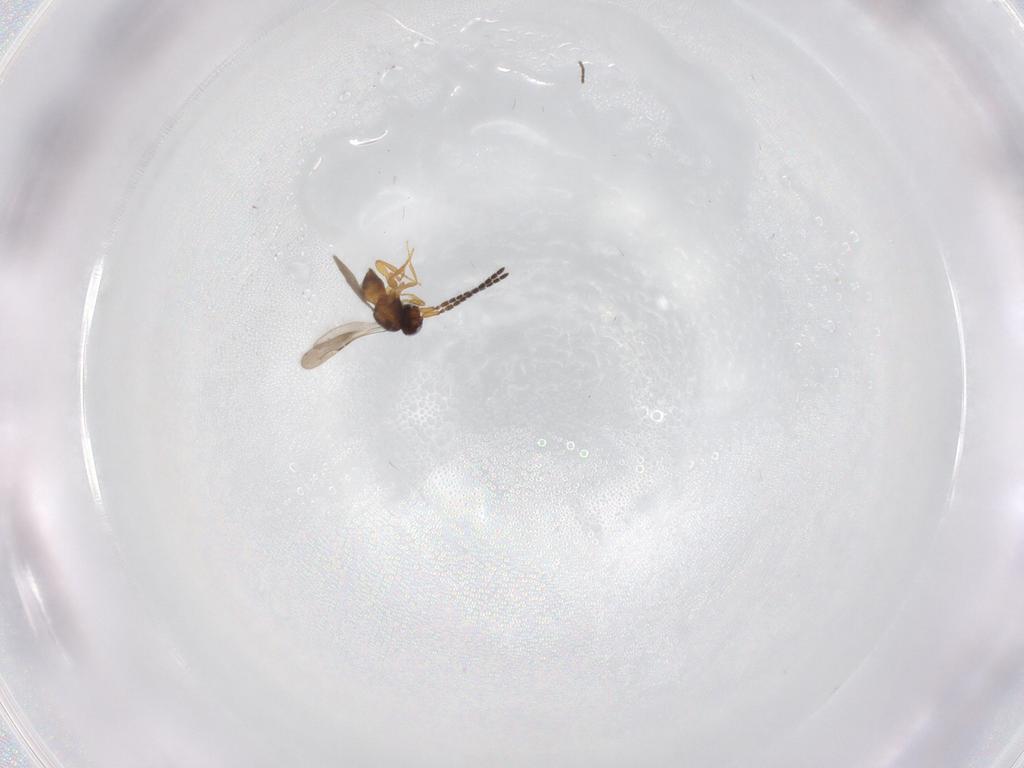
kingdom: Animalia
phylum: Arthropoda
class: Insecta
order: Hymenoptera
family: Diapriidae
